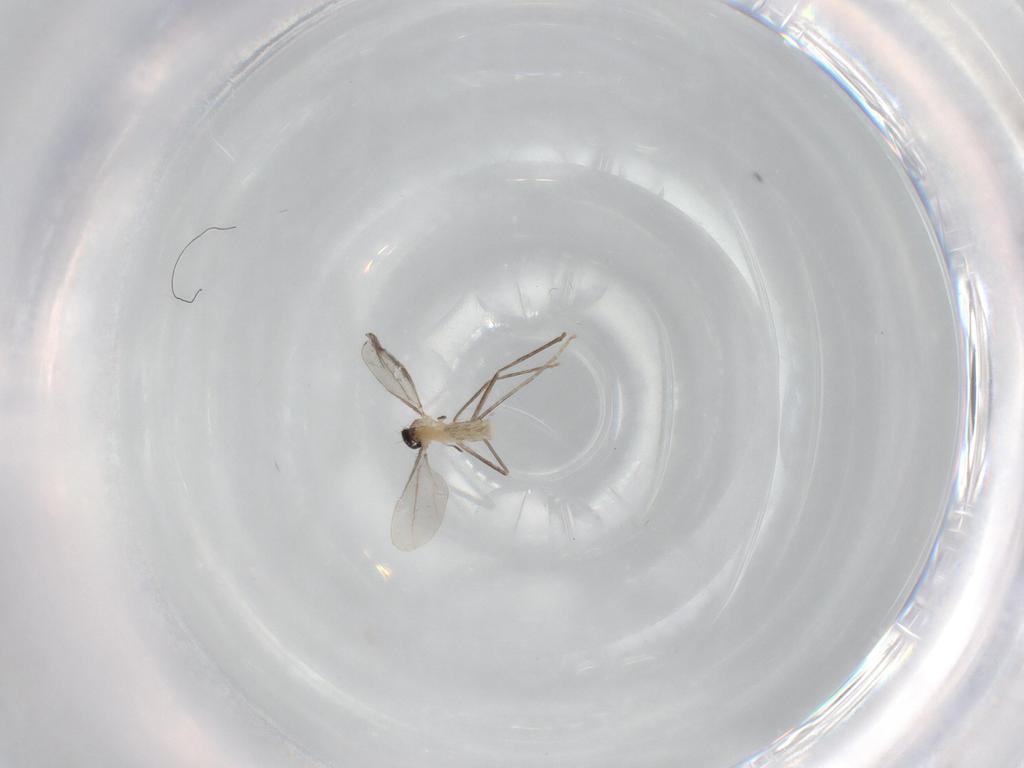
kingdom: Animalia
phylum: Arthropoda
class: Insecta
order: Diptera
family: Cecidomyiidae
